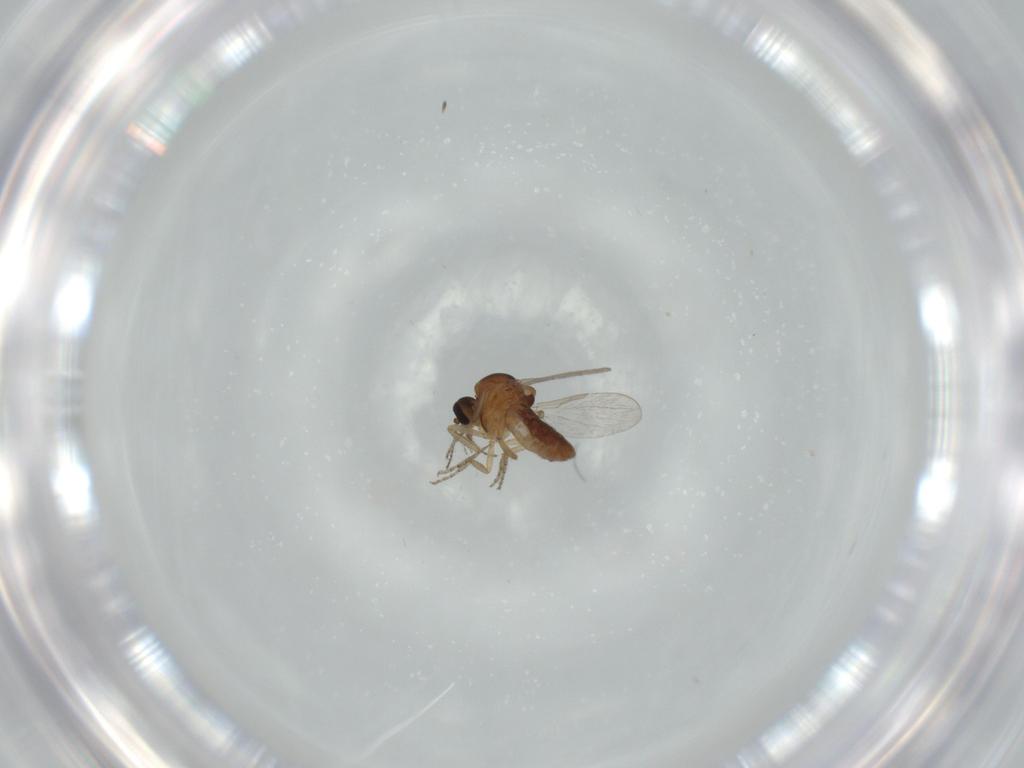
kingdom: Animalia
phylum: Arthropoda
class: Insecta
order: Diptera
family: Ceratopogonidae
